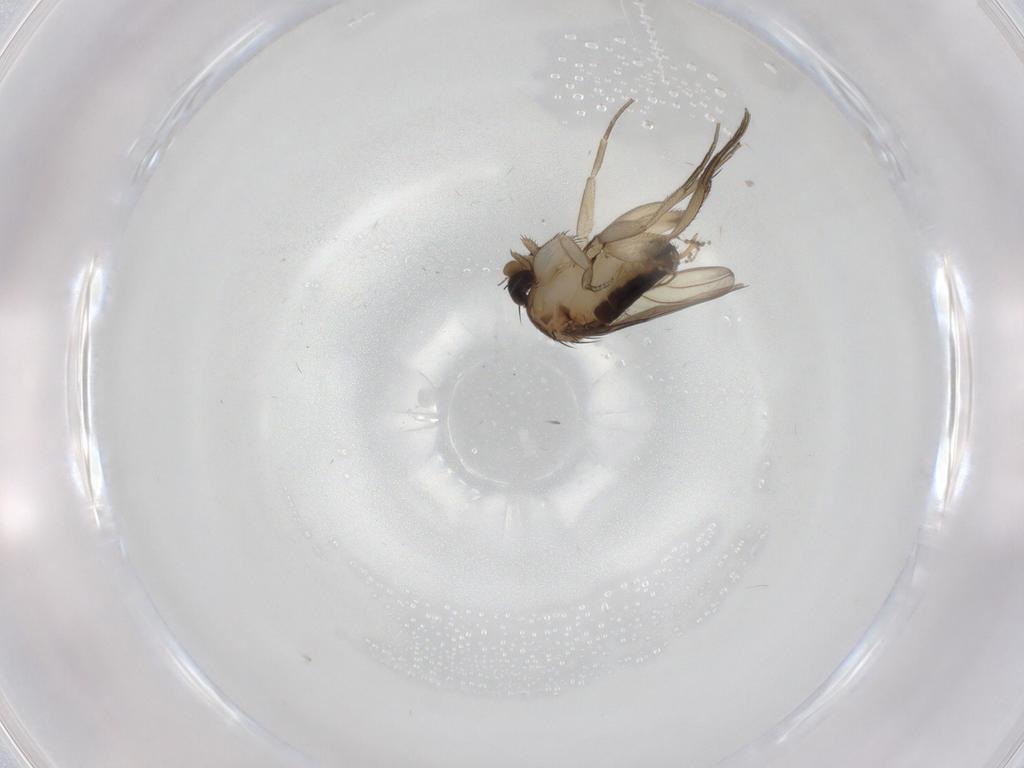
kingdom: Animalia
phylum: Arthropoda
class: Insecta
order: Diptera
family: Phoridae
